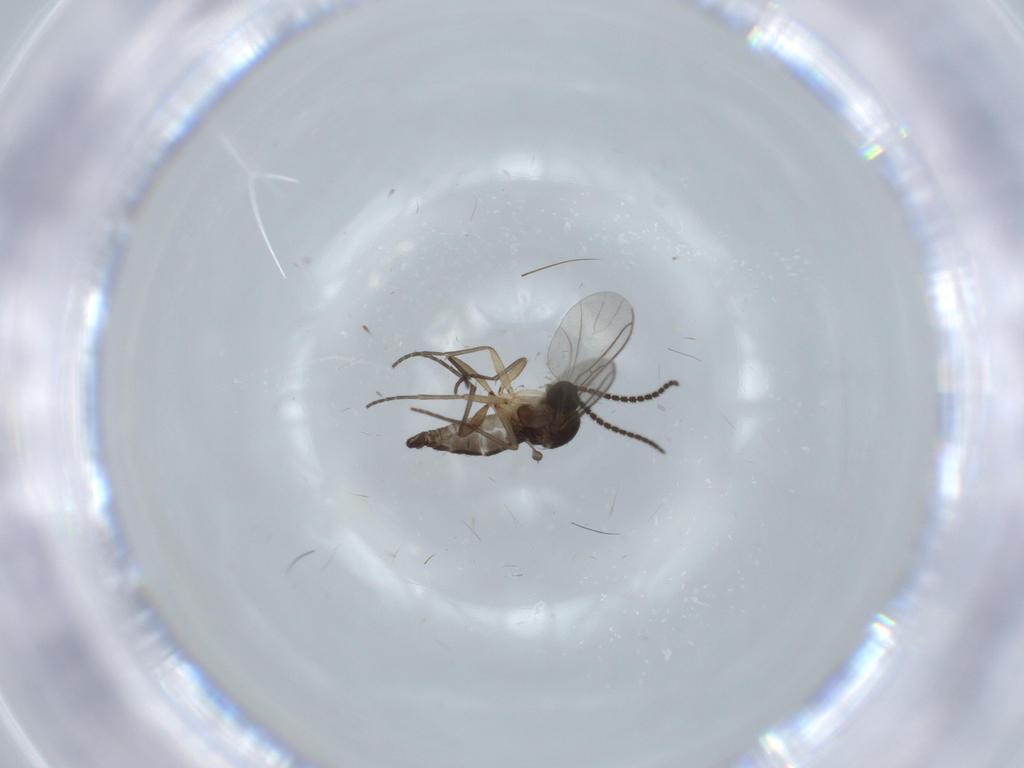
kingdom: Animalia
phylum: Arthropoda
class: Insecta
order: Diptera
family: Sciaridae
